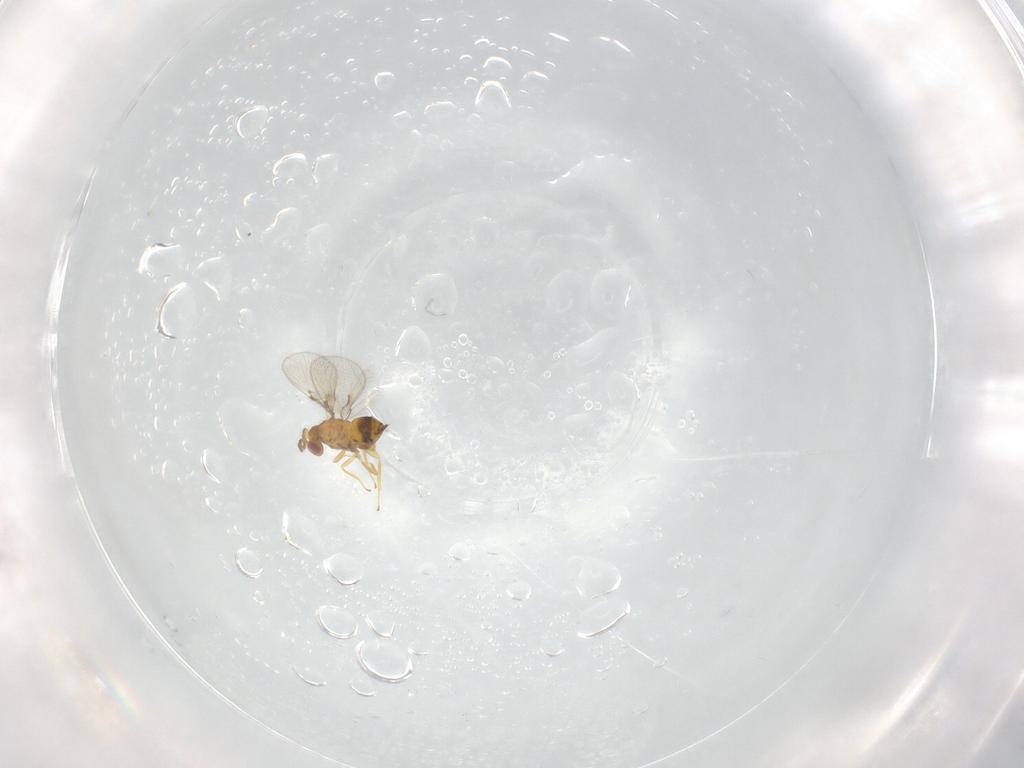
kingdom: Animalia
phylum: Arthropoda
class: Insecta
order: Hymenoptera
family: Trichogrammatidae
